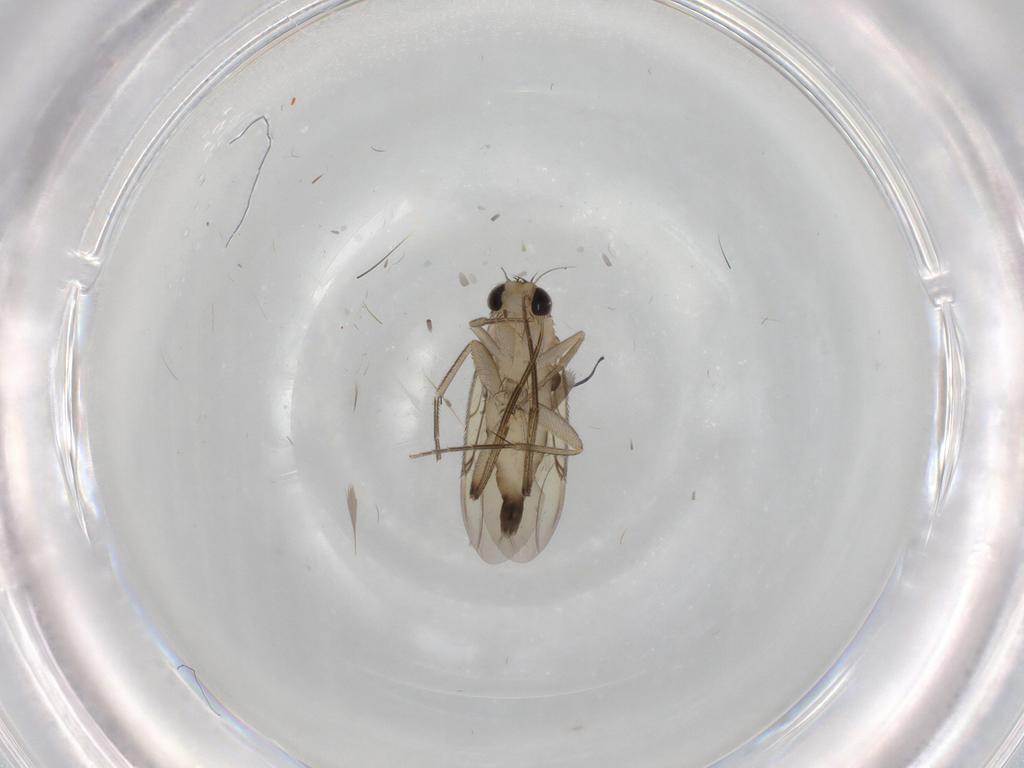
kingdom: Animalia
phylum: Arthropoda
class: Insecta
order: Diptera
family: Phoridae
